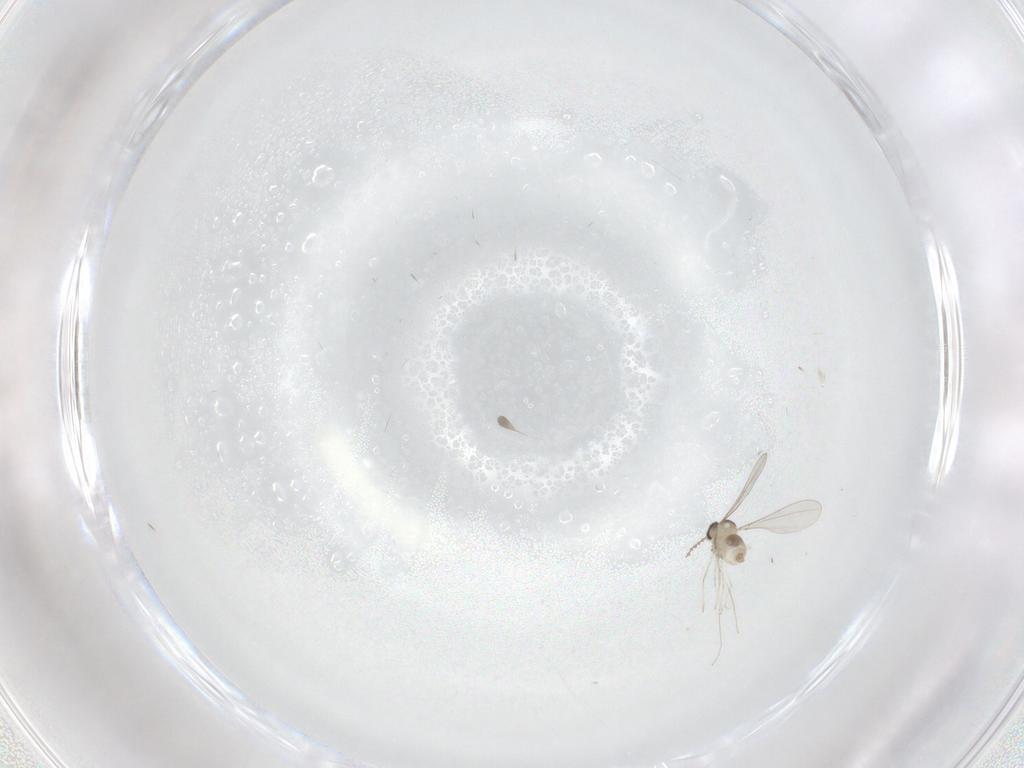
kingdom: Animalia
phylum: Arthropoda
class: Insecta
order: Diptera
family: Cecidomyiidae
